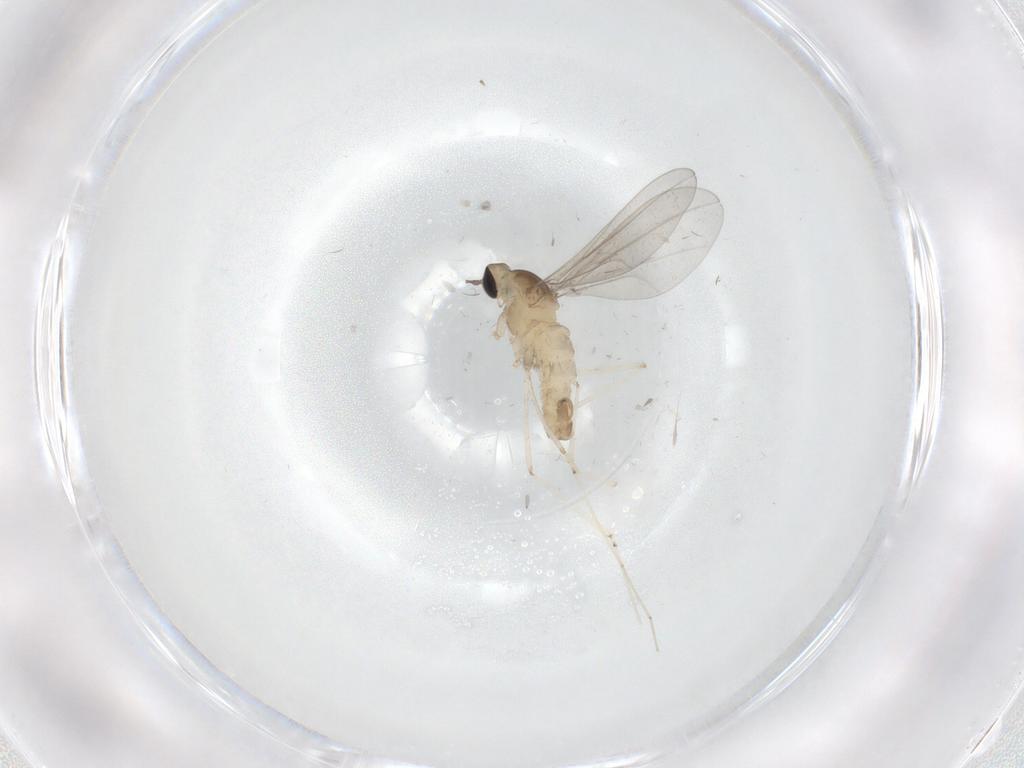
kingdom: Animalia
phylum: Arthropoda
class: Insecta
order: Diptera
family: Cecidomyiidae
